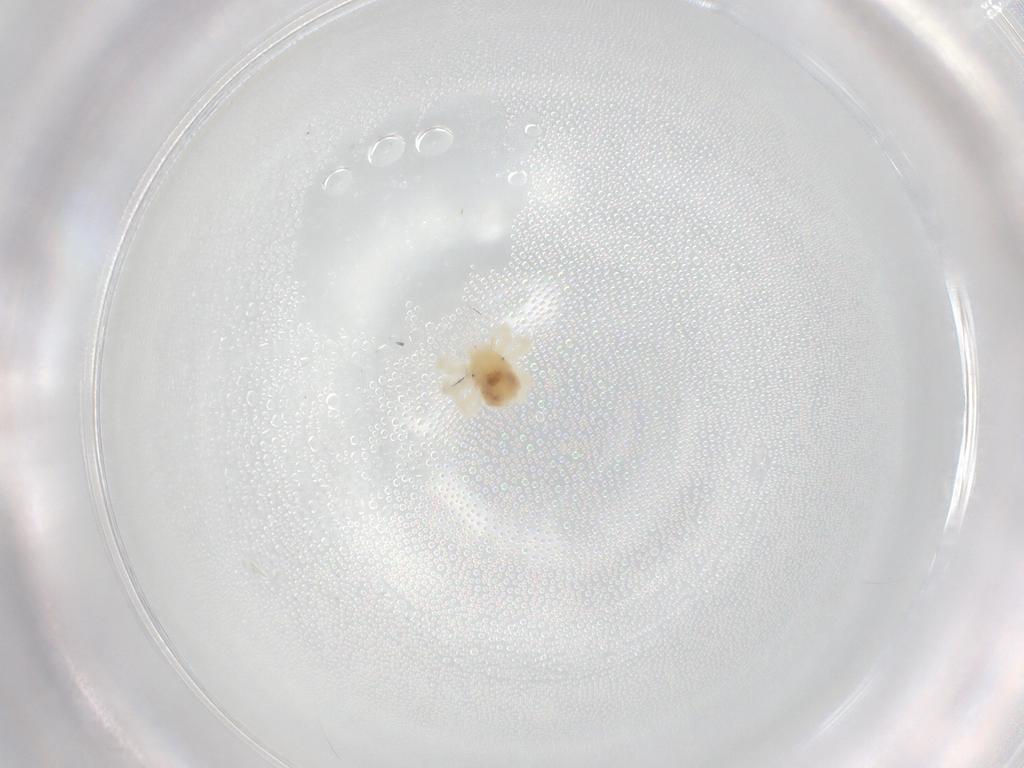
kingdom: Animalia
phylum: Arthropoda
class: Arachnida
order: Trombidiformes
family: Anystidae
